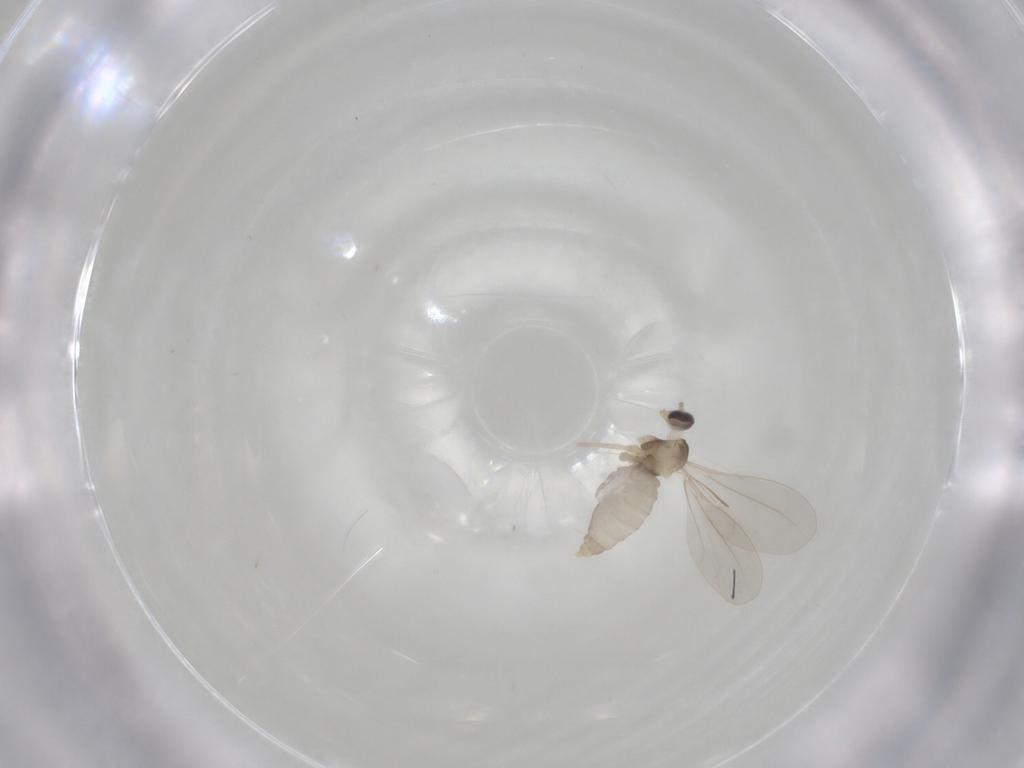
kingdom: Animalia
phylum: Arthropoda
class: Insecta
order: Diptera
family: Cecidomyiidae
